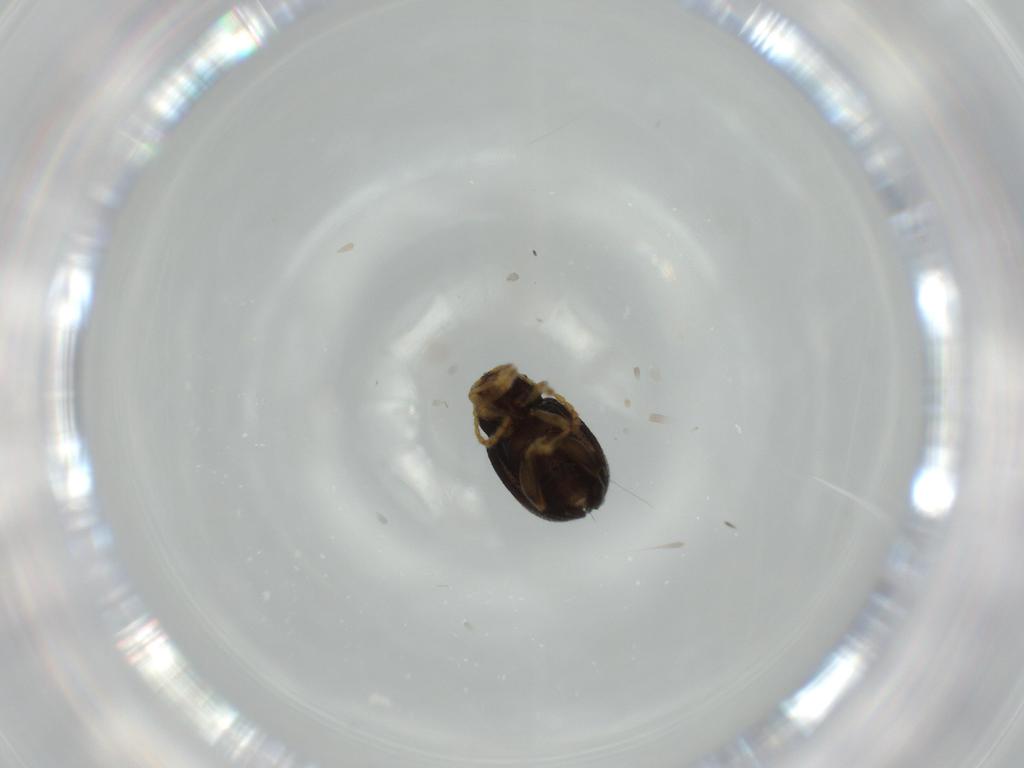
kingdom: Animalia
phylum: Arthropoda
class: Insecta
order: Coleoptera
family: Chrysomelidae
